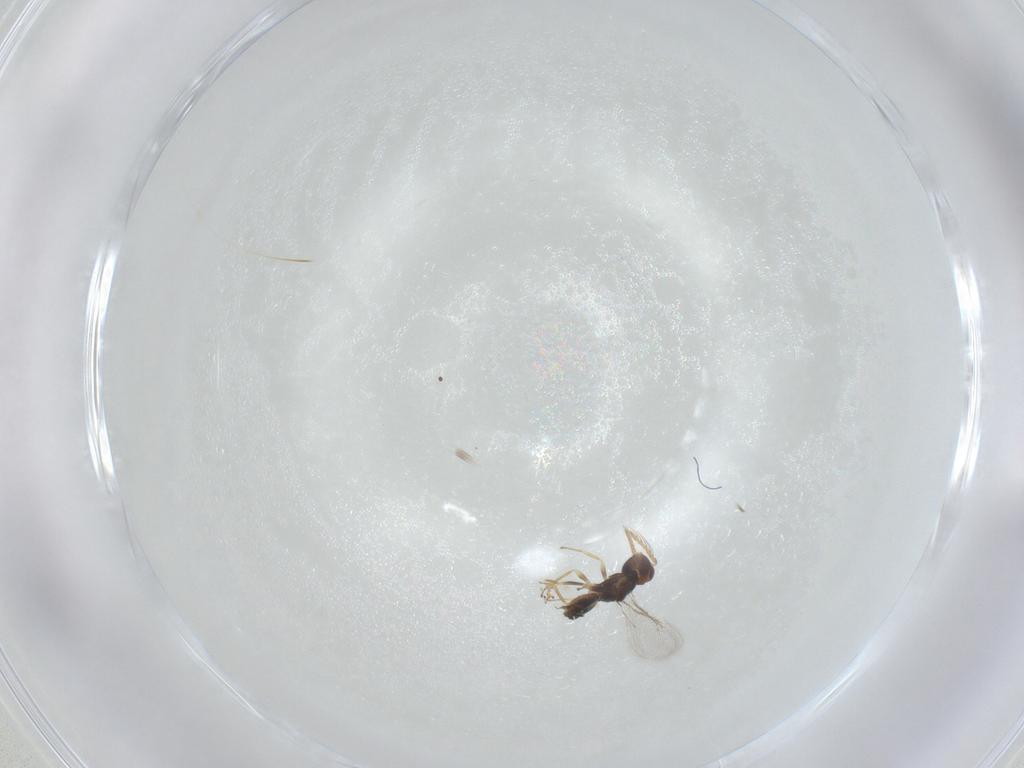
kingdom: Animalia
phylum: Arthropoda
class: Insecta
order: Hymenoptera
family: Eulophidae
